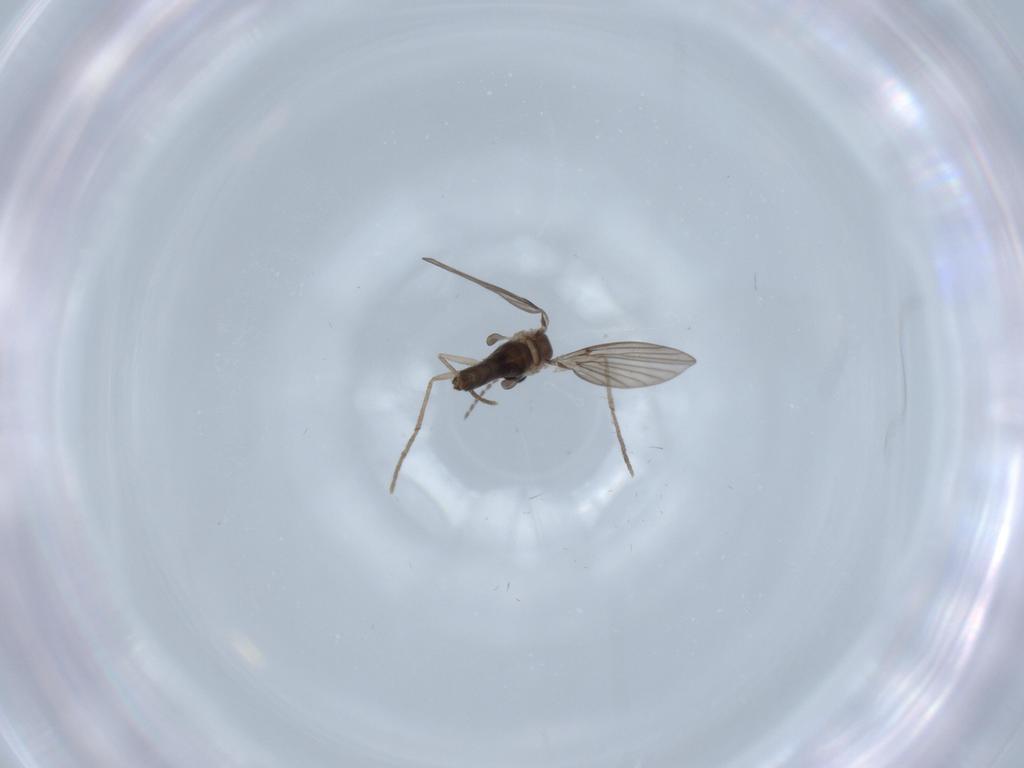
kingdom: Animalia
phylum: Arthropoda
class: Insecta
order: Diptera
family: Psychodidae
